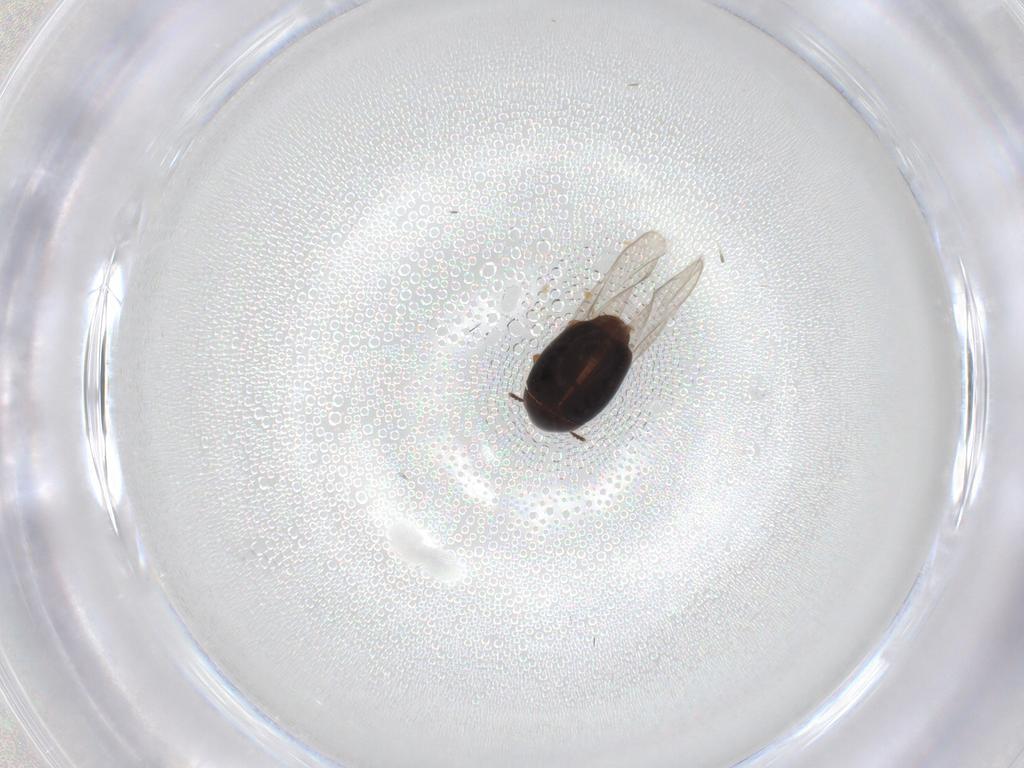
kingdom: Animalia
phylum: Arthropoda
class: Insecta
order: Coleoptera
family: Corylophidae
